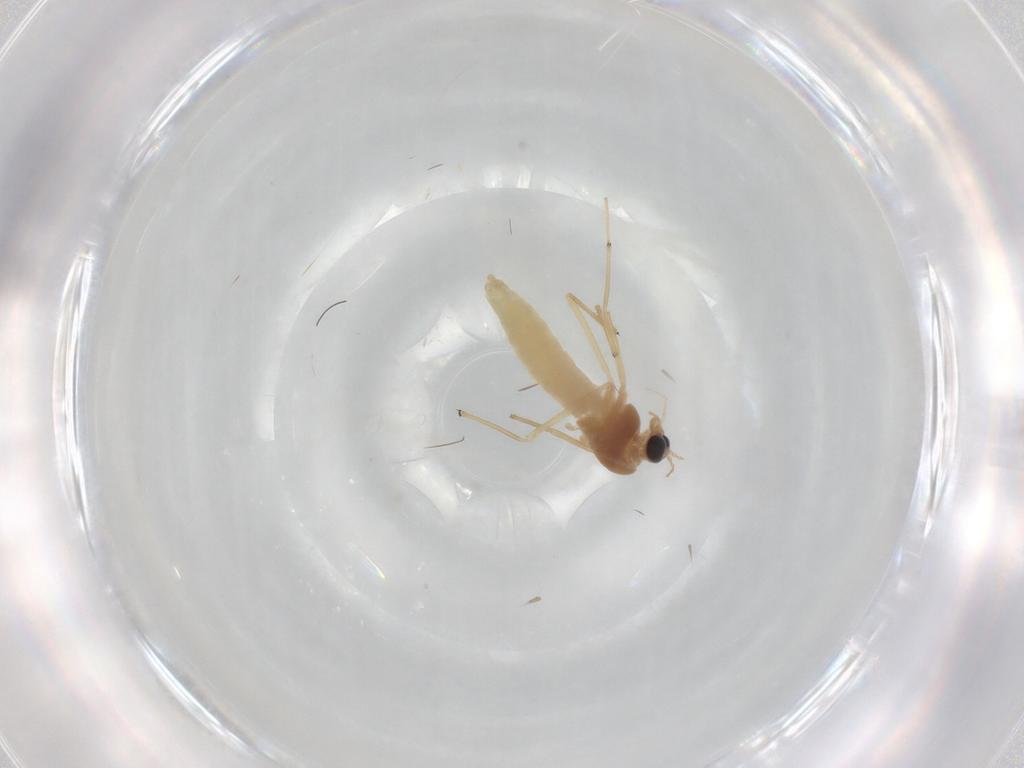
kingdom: Animalia
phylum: Arthropoda
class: Insecta
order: Diptera
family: Chironomidae
